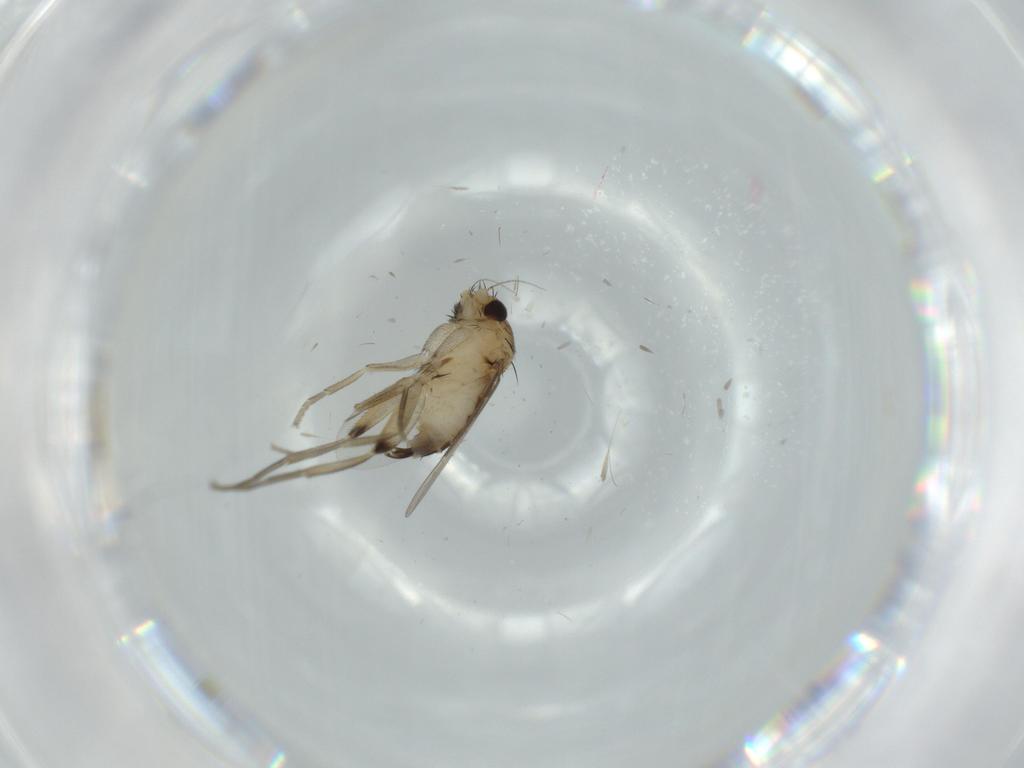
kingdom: Animalia
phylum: Arthropoda
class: Insecta
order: Diptera
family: Phoridae
